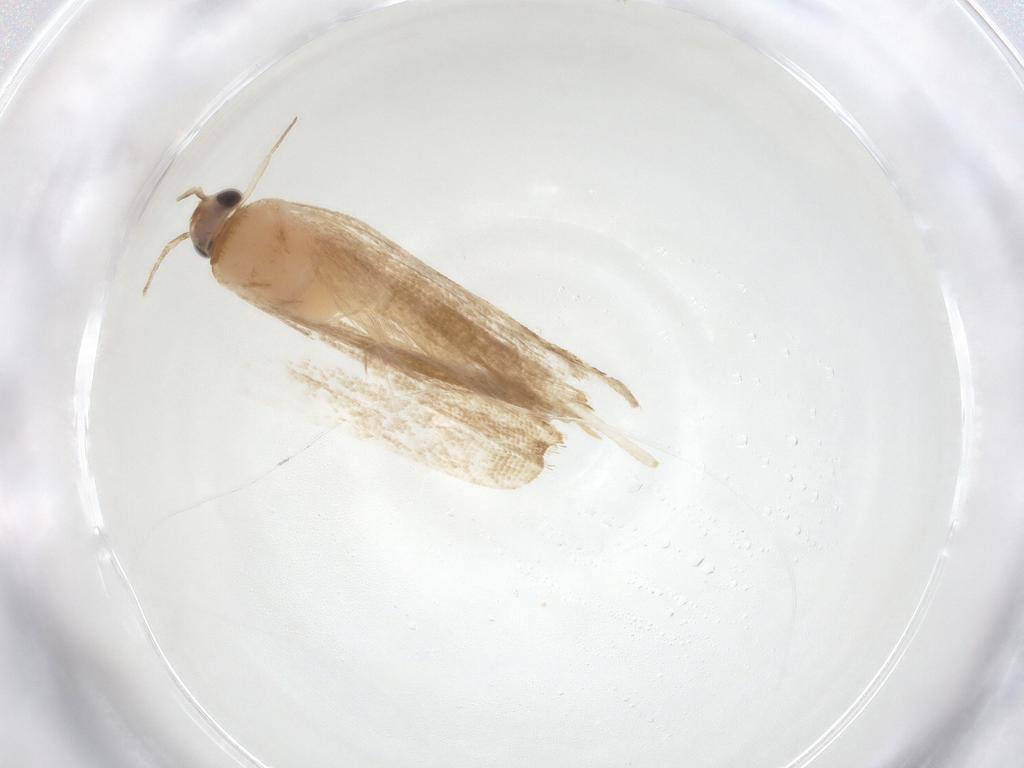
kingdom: Animalia
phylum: Arthropoda
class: Insecta
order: Lepidoptera
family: Erebidae
